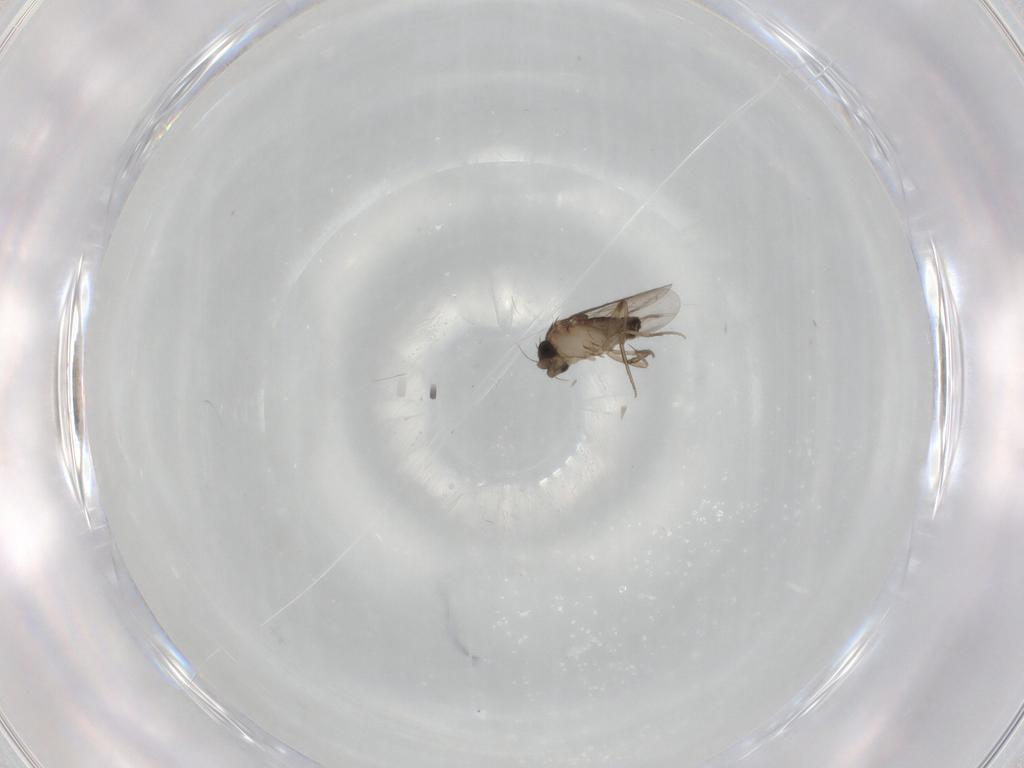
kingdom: Animalia
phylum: Arthropoda
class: Insecta
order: Diptera
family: Phoridae
